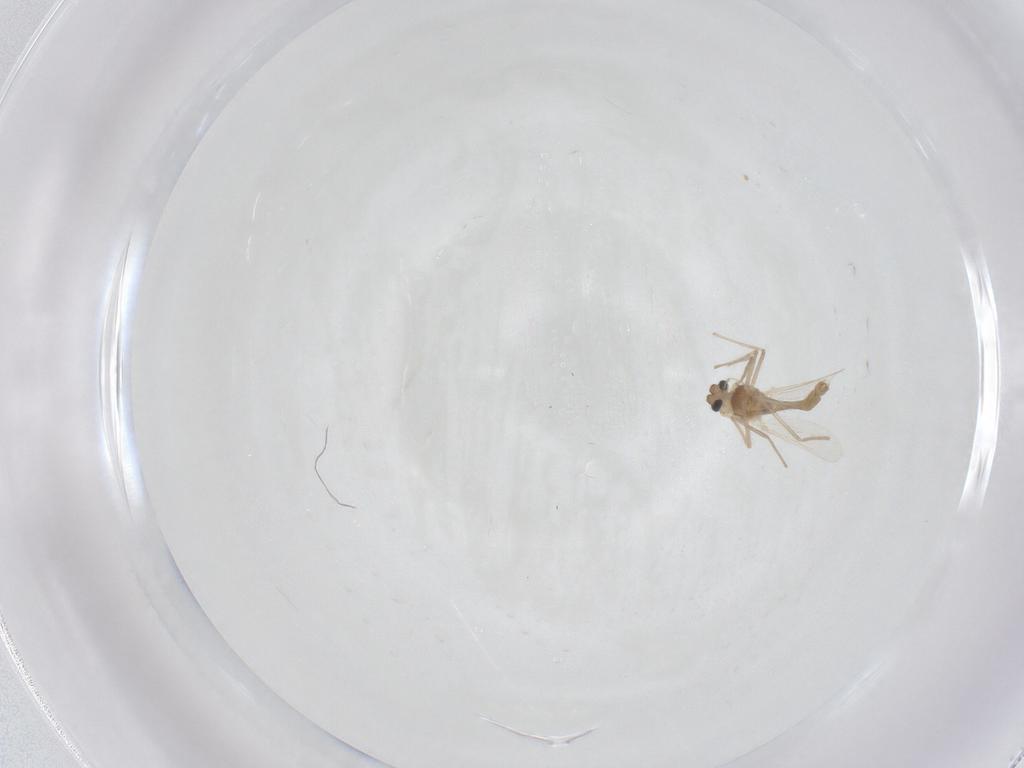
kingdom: Animalia
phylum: Arthropoda
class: Insecta
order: Diptera
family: Chironomidae
